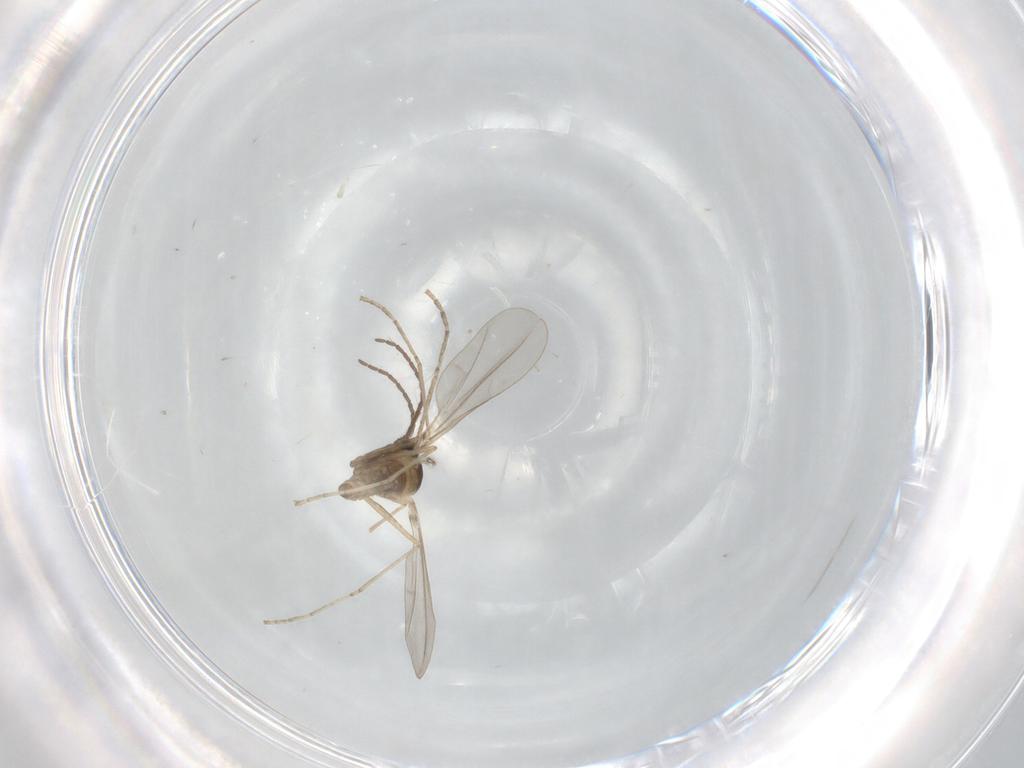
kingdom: Animalia
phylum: Arthropoda
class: Insecta
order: Diptera
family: Cecidomyiidae
